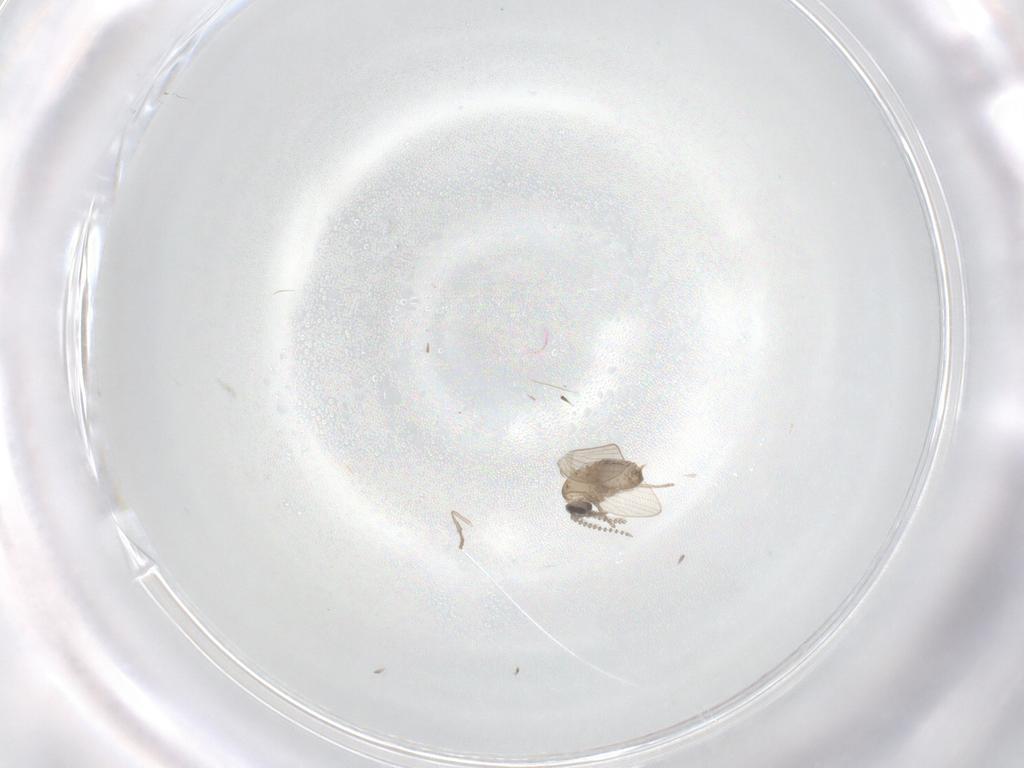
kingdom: Animalia
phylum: Arthropoda
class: Insecta
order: Diptera
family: Psychodidae
